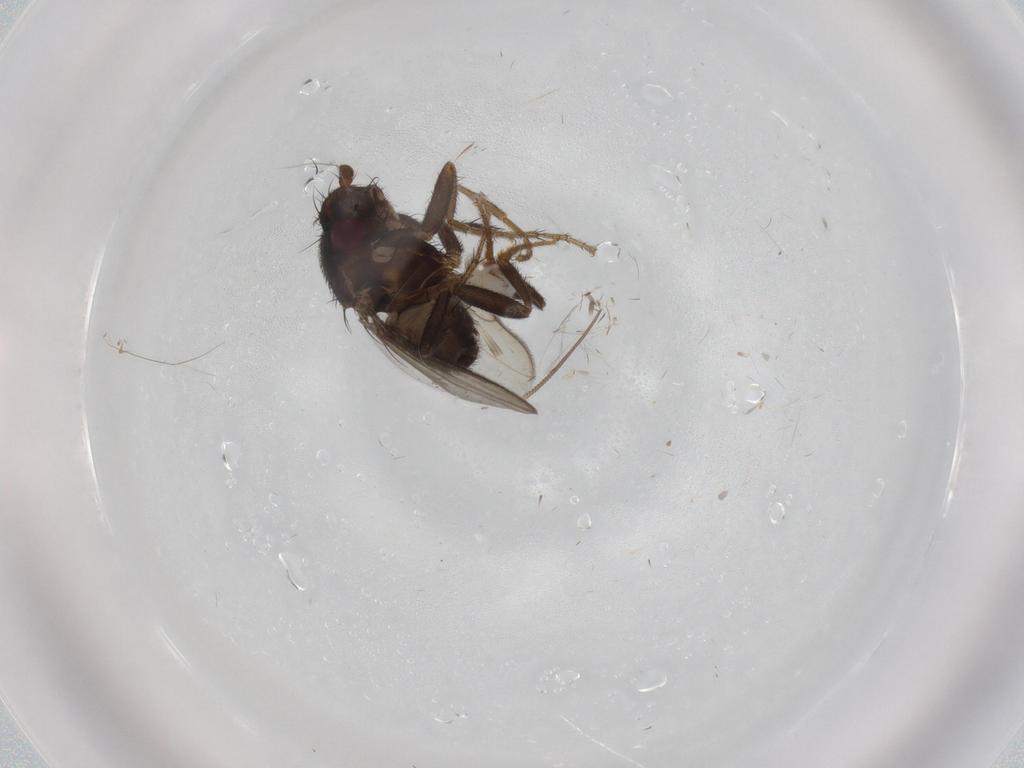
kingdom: Animalia
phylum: Arthropoda
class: Insecta
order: Diptera
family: Sphaeroceridae
